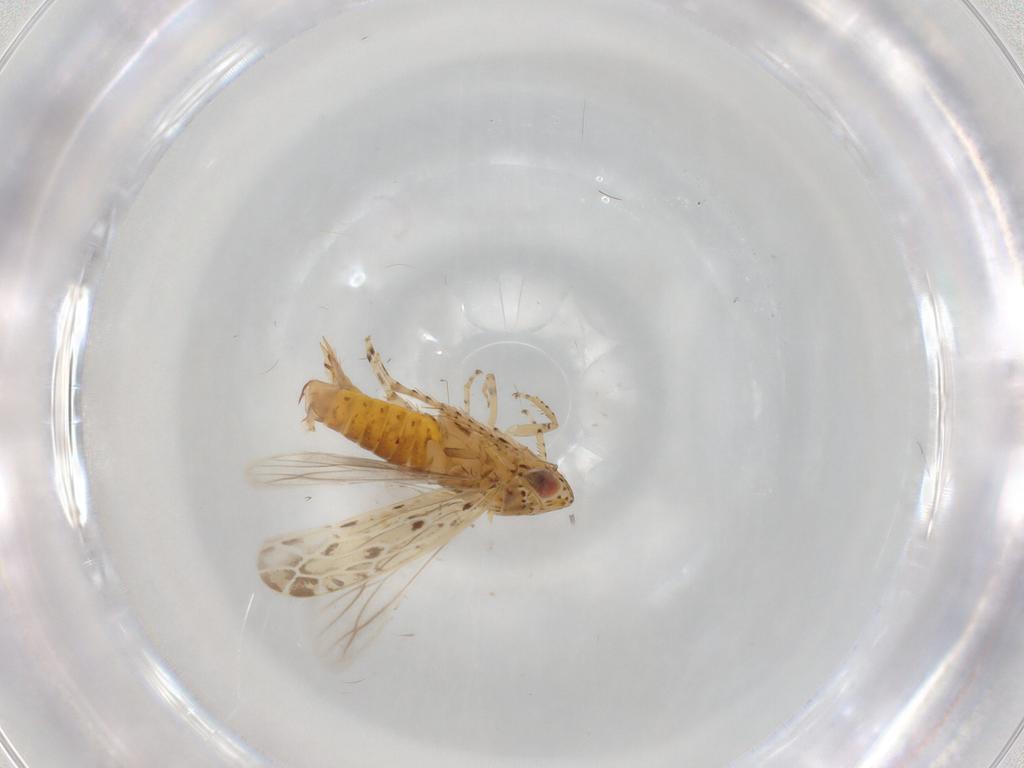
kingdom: Animalia
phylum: Arthropoda
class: Insecta
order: Hemiptera
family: Cicadellidae
